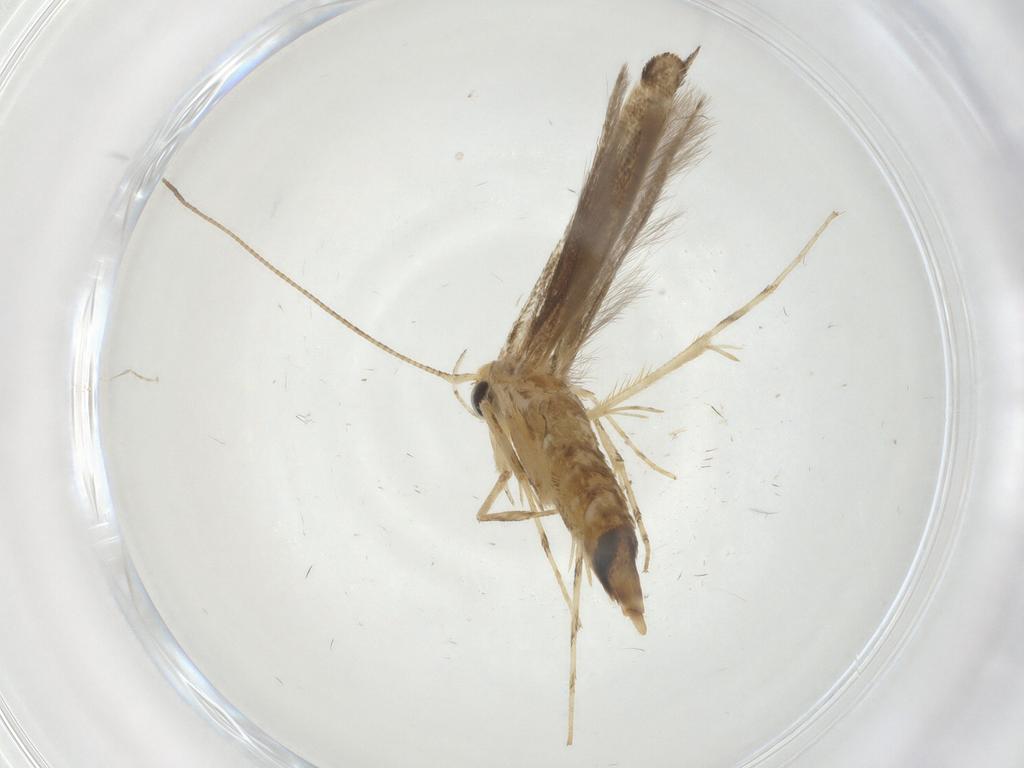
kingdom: Animalia
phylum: Arthropoda
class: Insecta
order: Lepidoptera
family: Gracillariidae
